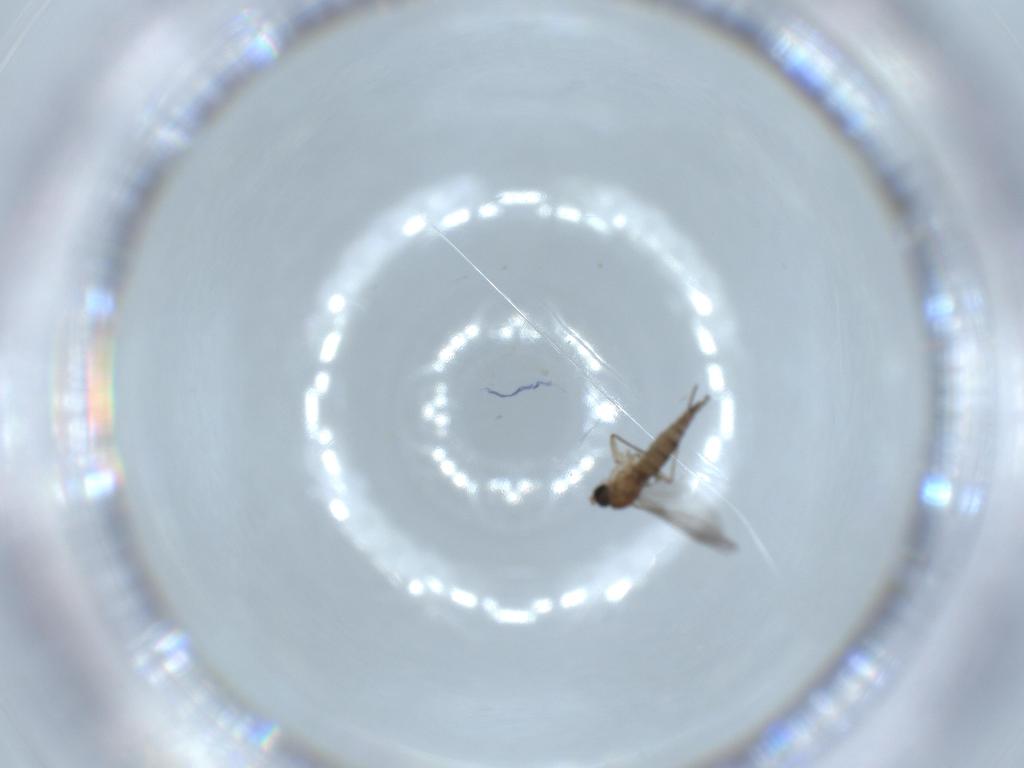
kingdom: Animalia
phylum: Arthropoda
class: Insecta
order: Diptera
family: Sciaridae
